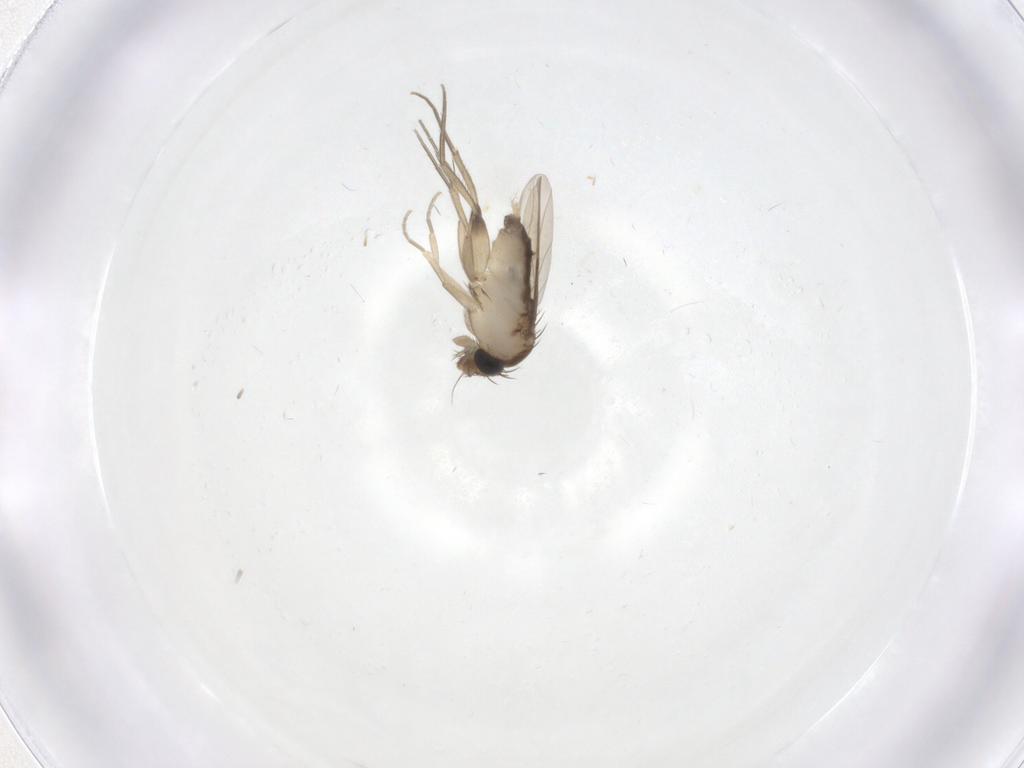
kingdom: Animalia
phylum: Arthropoda
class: Insecta
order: Diptera
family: Phoridae
